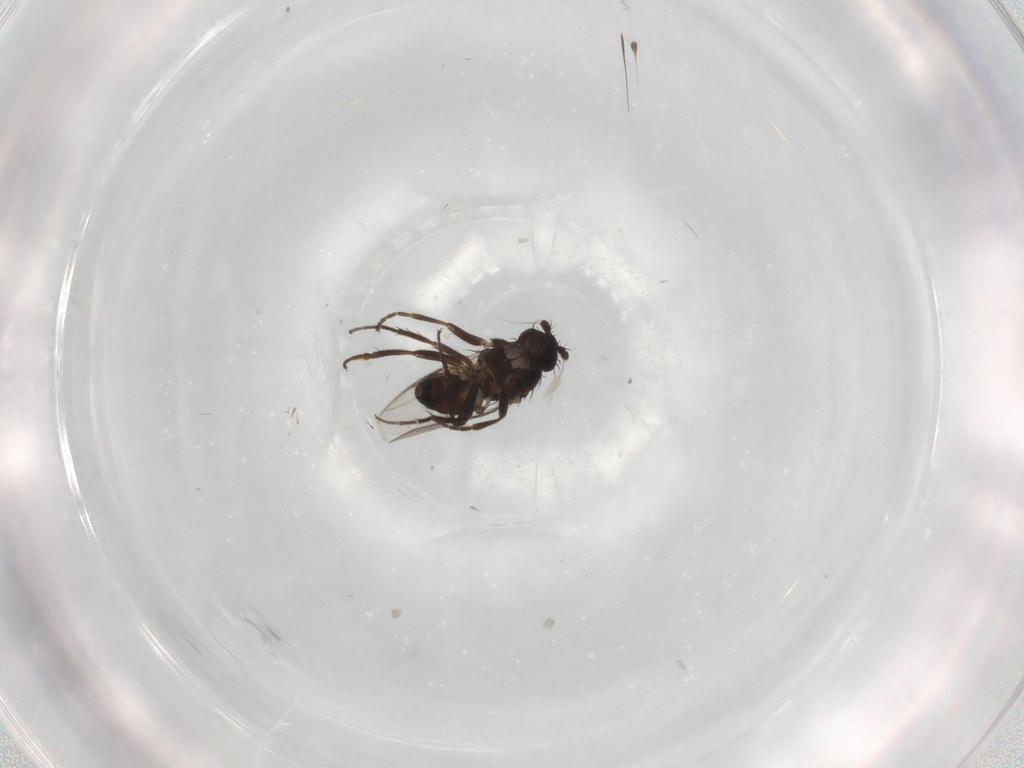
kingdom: Animalia
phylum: Arthropoda
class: Insecta
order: Diptera
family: Sphaeroceridae
